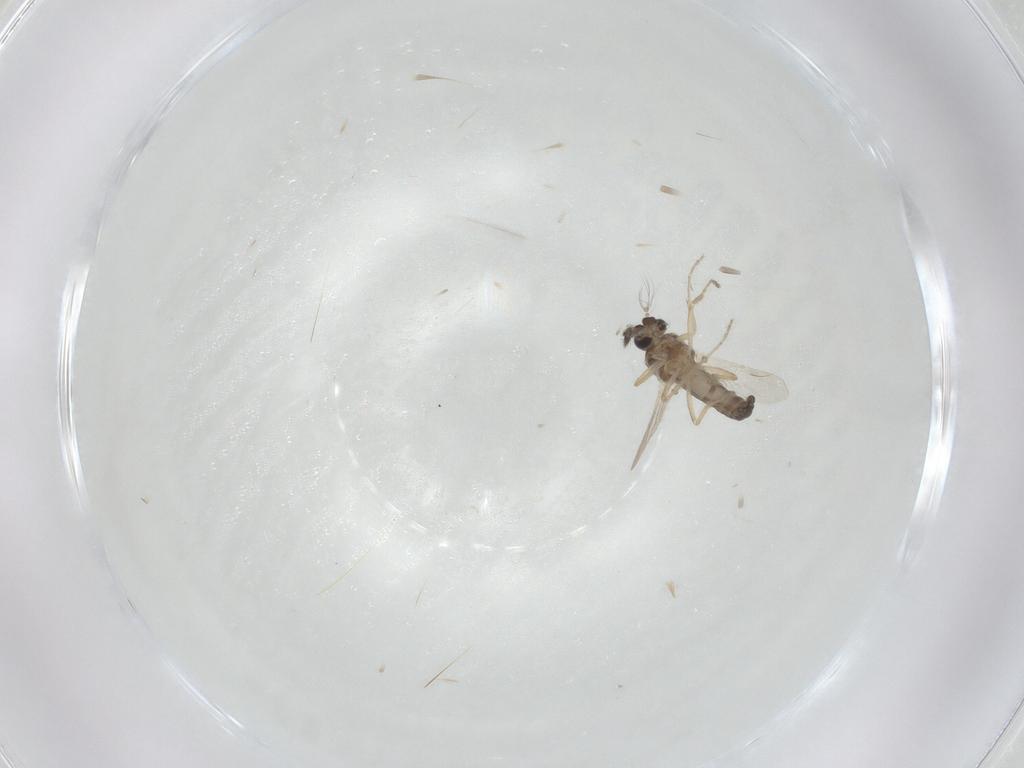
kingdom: Animalia
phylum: Arthropoda
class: Insecta
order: Diptera
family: Ceratopogonidae
